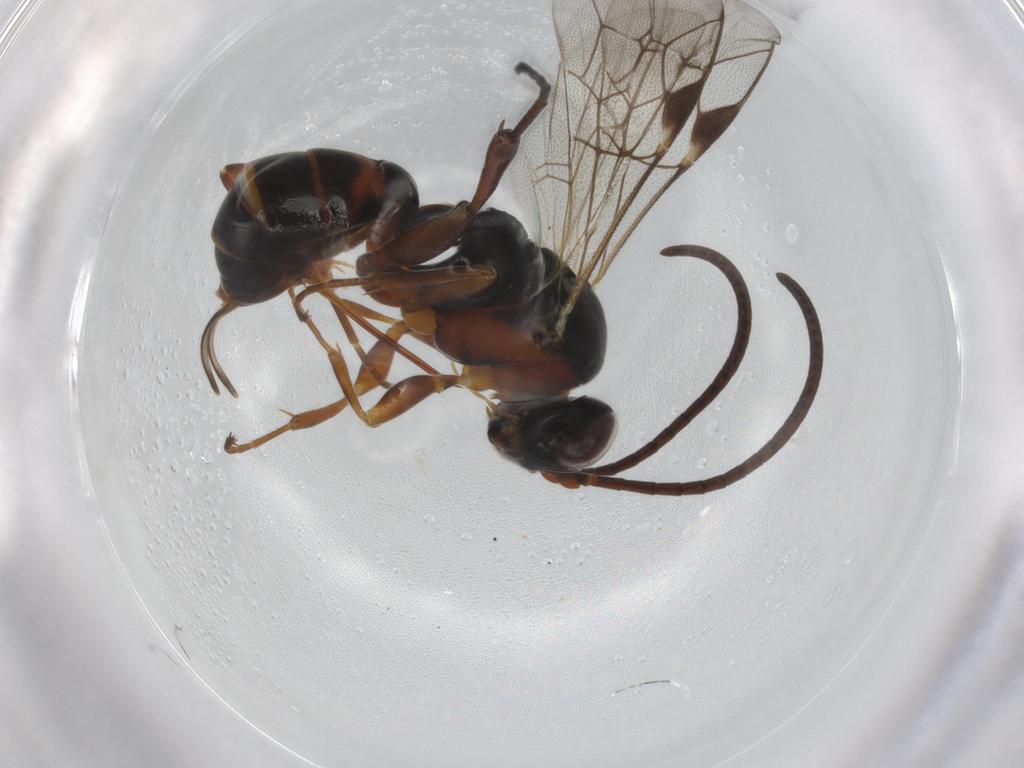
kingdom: Animalia
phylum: Arthropoda
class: Insecta
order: Hymenoptera
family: Ichneumonidae
